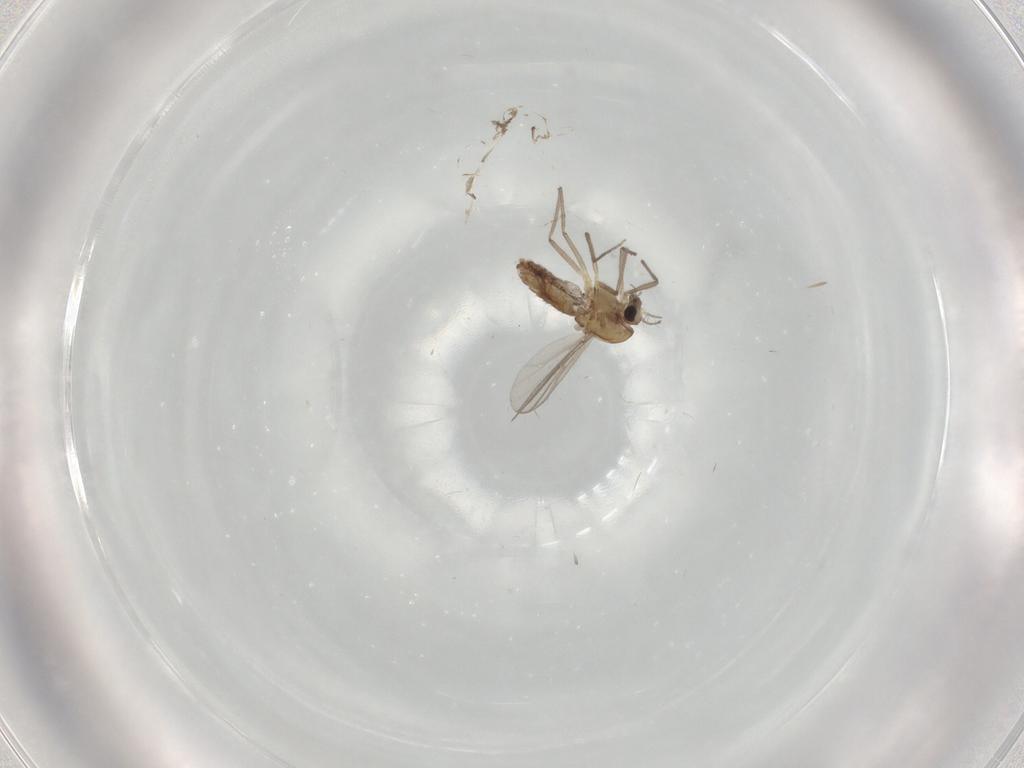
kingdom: Animalia
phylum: Arthropoda
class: Insecta
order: Diptera
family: Chironomidae
